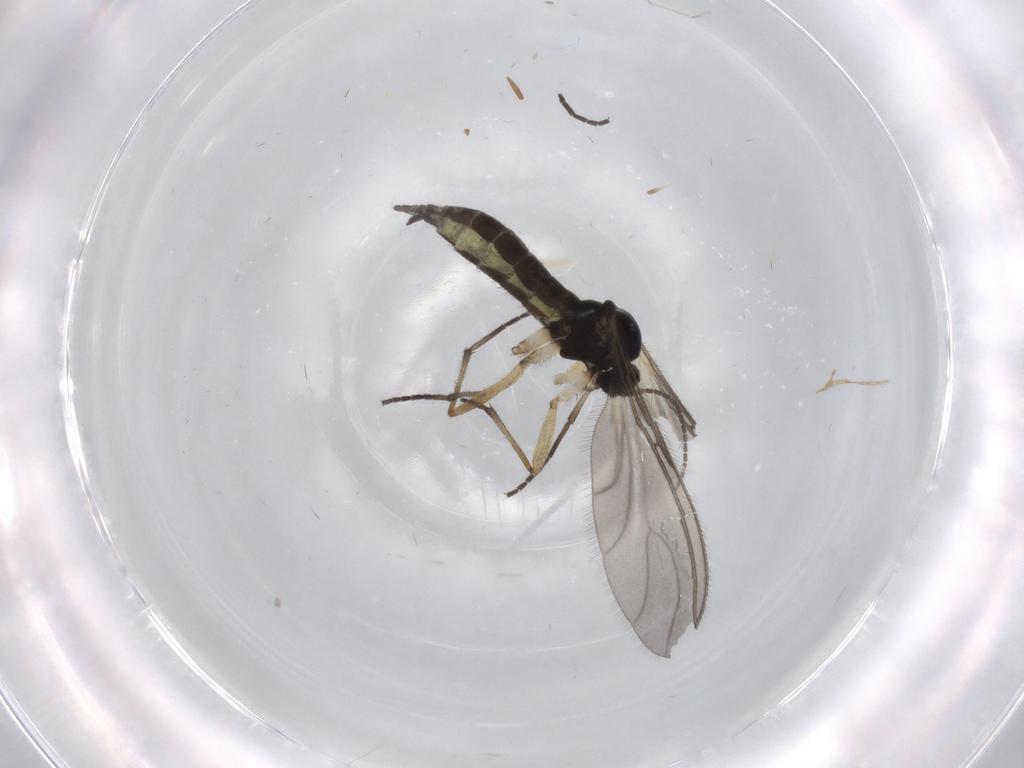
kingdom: Animalia
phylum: Arthropoda
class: Insecta
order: Diptera
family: Sciaridae
